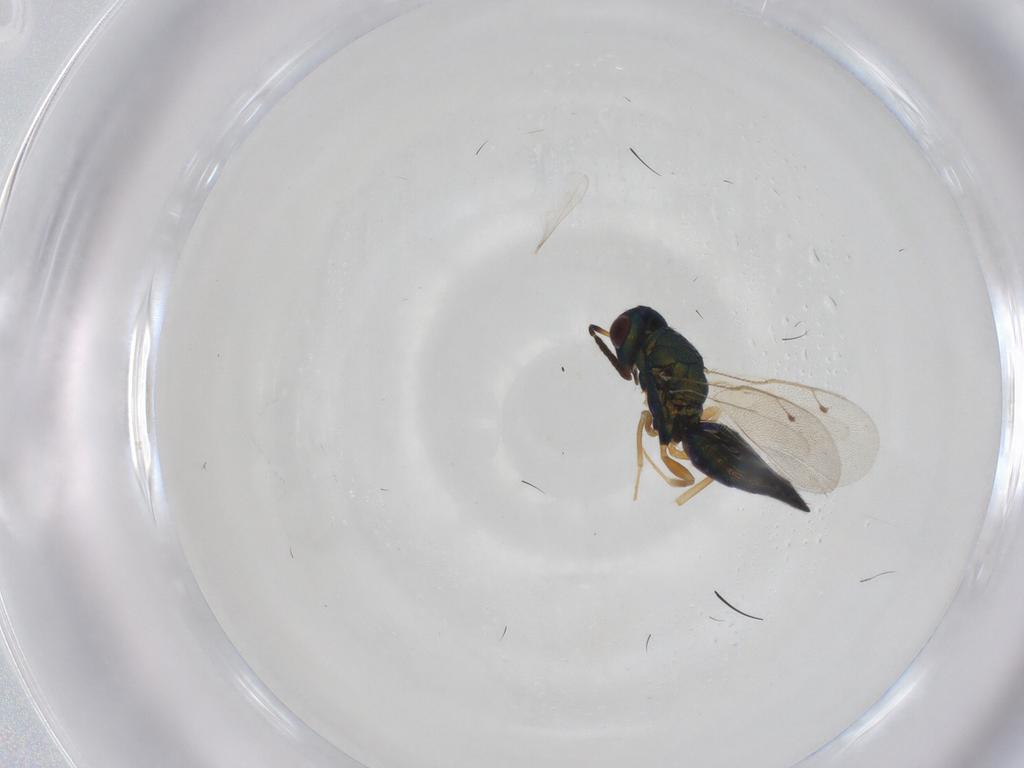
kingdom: Animalia
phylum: Arthropoda
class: Insecta
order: Hymenoptera
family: Pteromalidae
